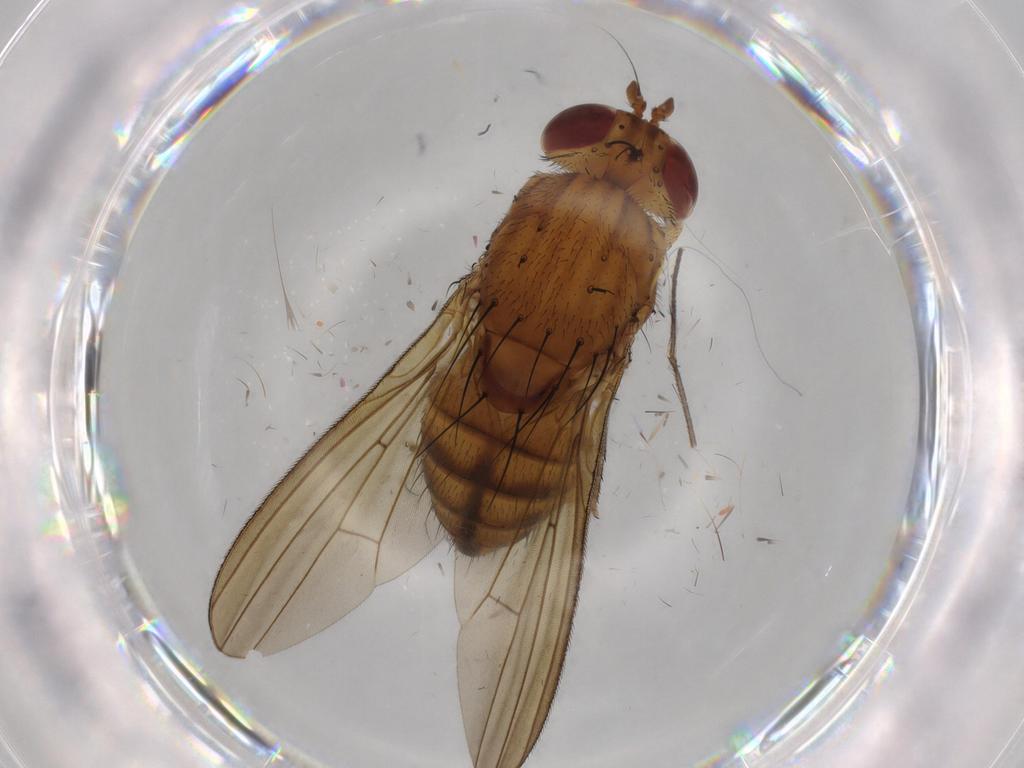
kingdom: Animalia
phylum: Arthropoda
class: Insecta
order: Diptera
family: Sciaridae
